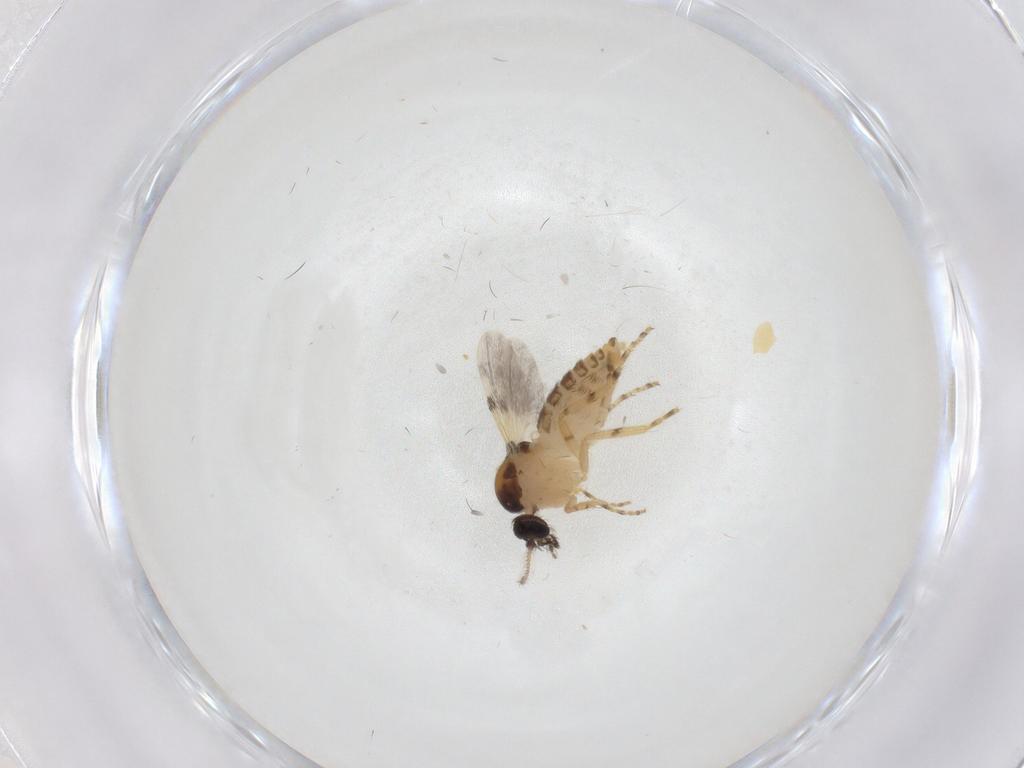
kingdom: Animalia
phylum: Arthropoda
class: Insecta
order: Diptera
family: Ceratopogonidae
